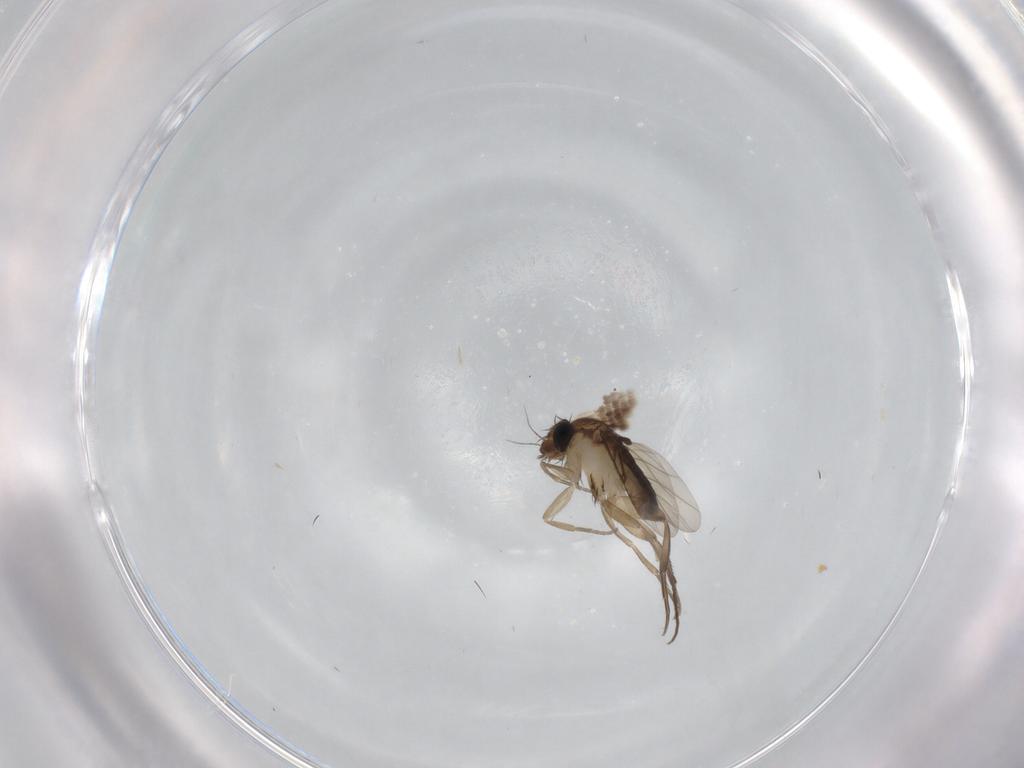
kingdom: Animalia
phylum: Arthropoda
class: Insecta
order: Diptera
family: Phoridae
